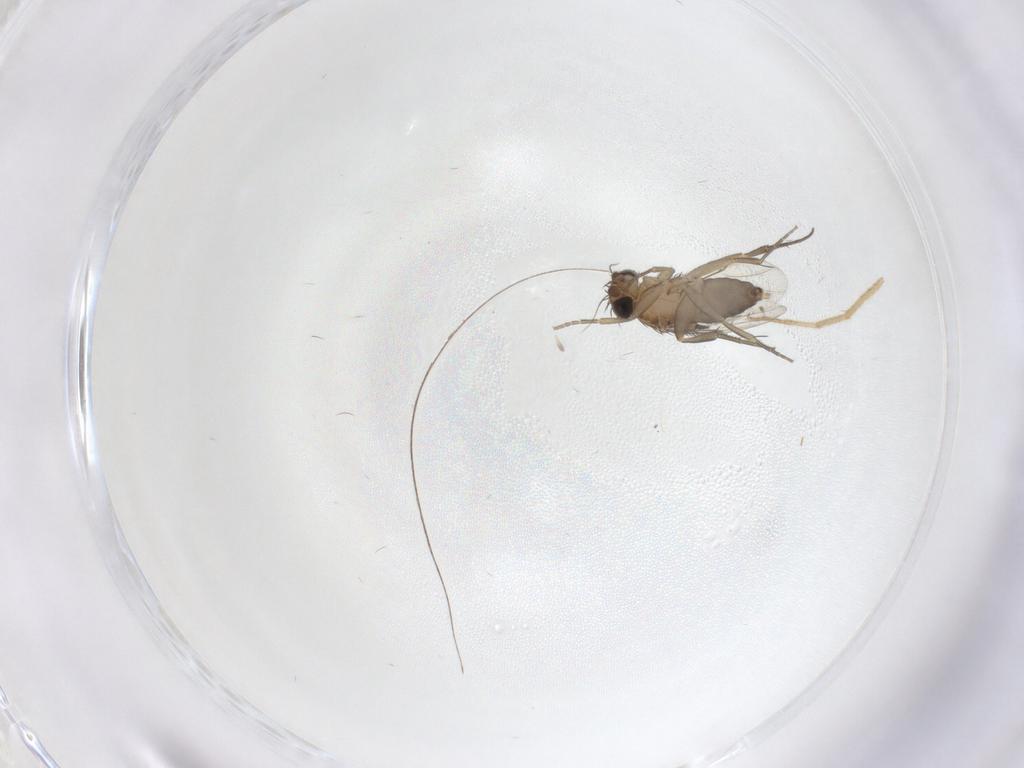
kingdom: Animalia
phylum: Arthropoda
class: Insecta
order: Diptera
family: Phoridae
